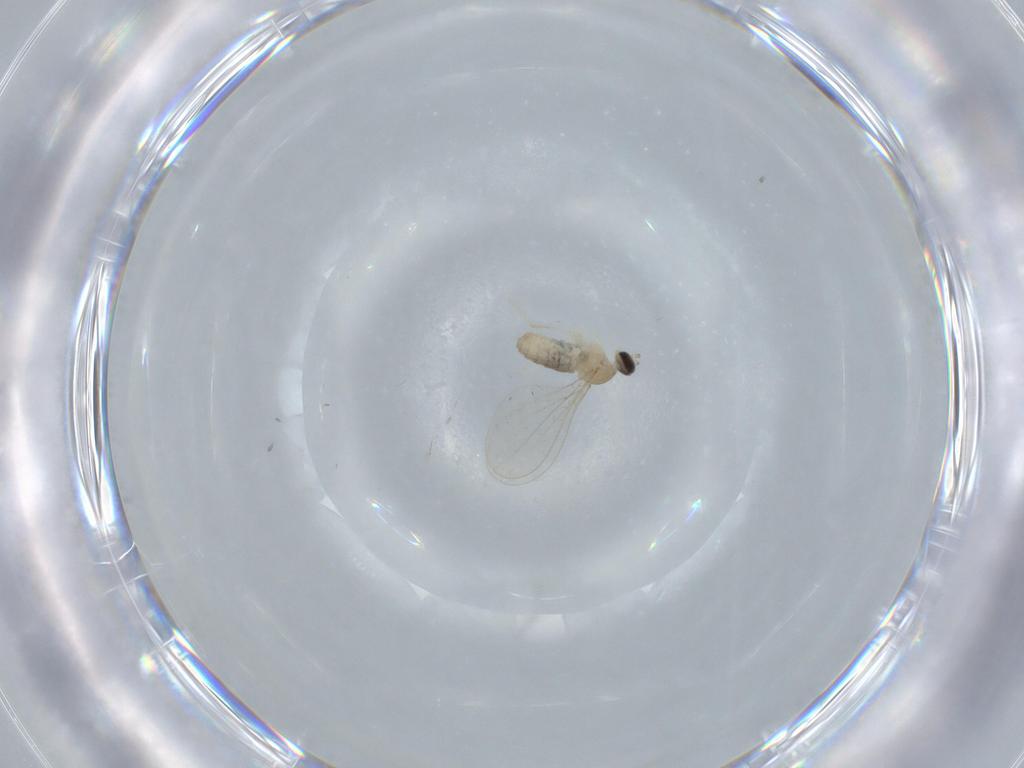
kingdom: Animalia
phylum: Arthropoda
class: Insecta
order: Diptera
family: Cecidomyiidae
